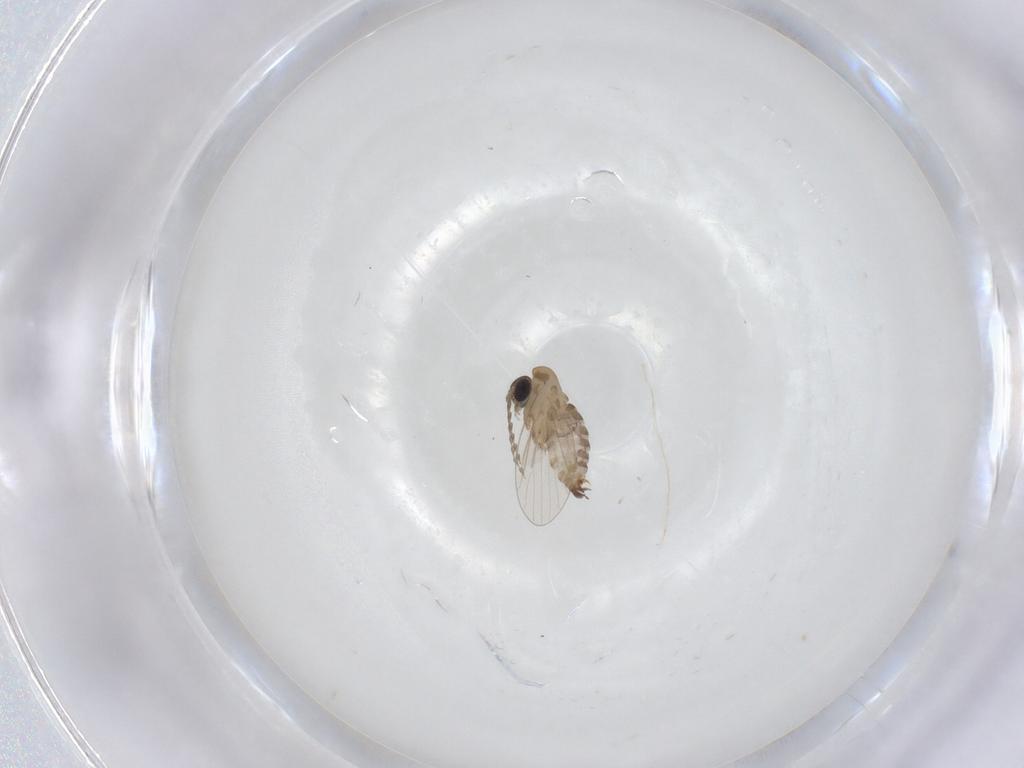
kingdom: Animalia
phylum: Arthropoda
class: Insecta
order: Diptera
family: Psychodidae
